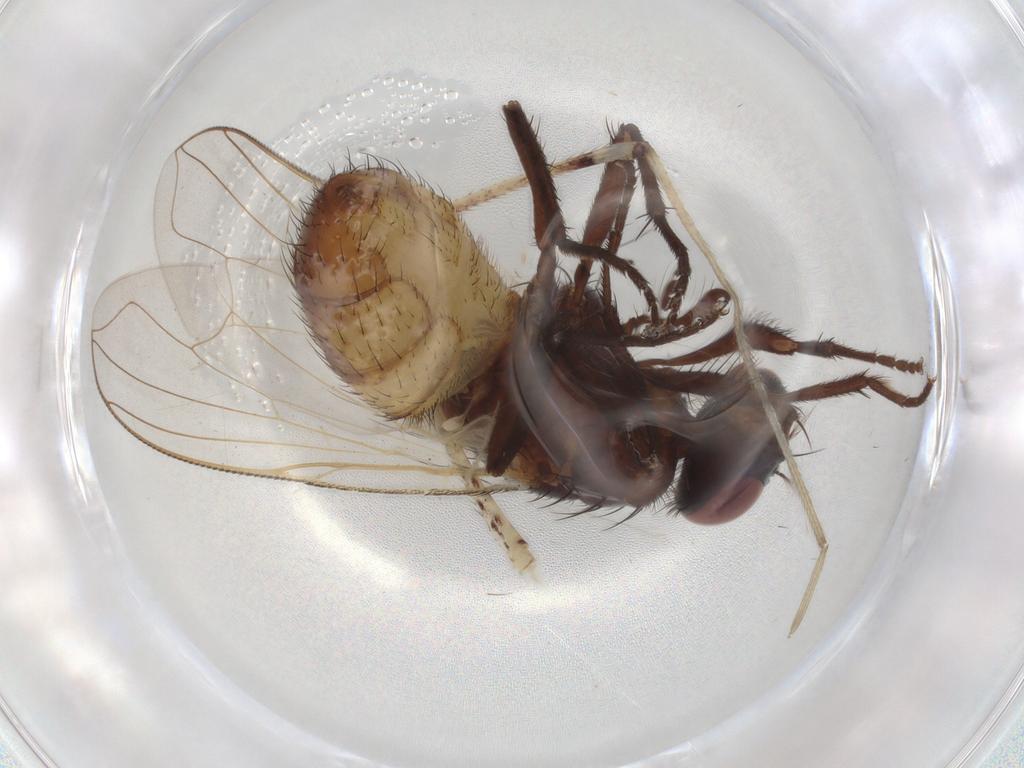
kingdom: Animalia
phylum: Arthropoda
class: Insecta
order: Diptera
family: Muscidae
